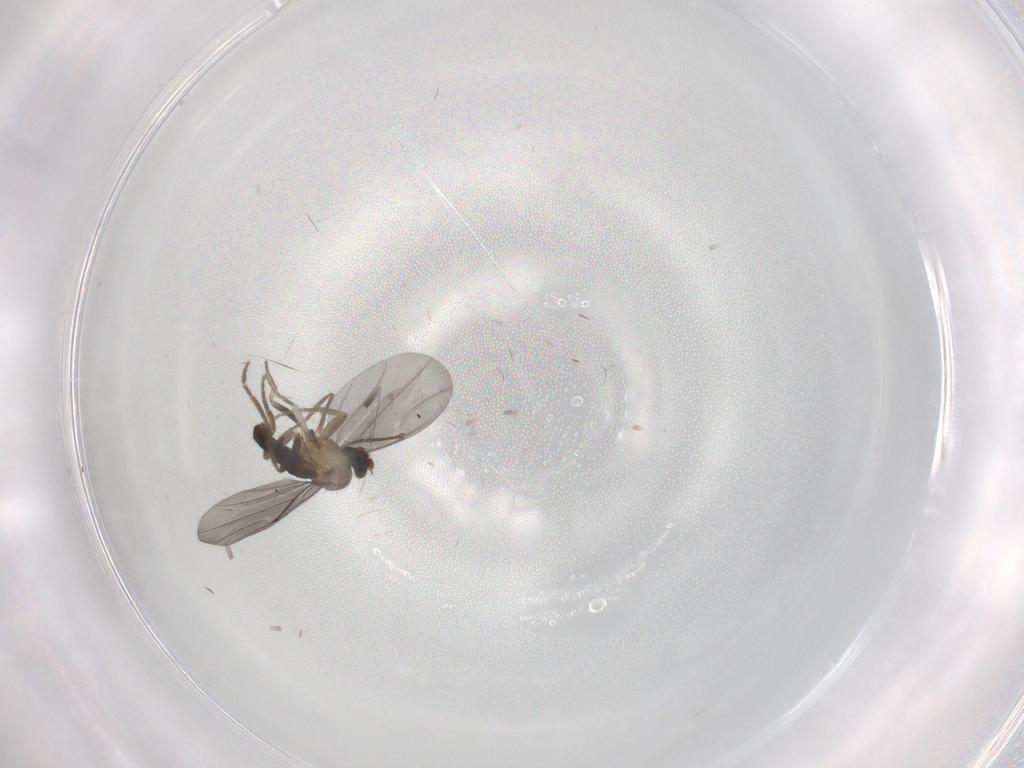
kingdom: Animalia
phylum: Arthropoda
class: Insecta
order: Diptera
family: Phoridae
